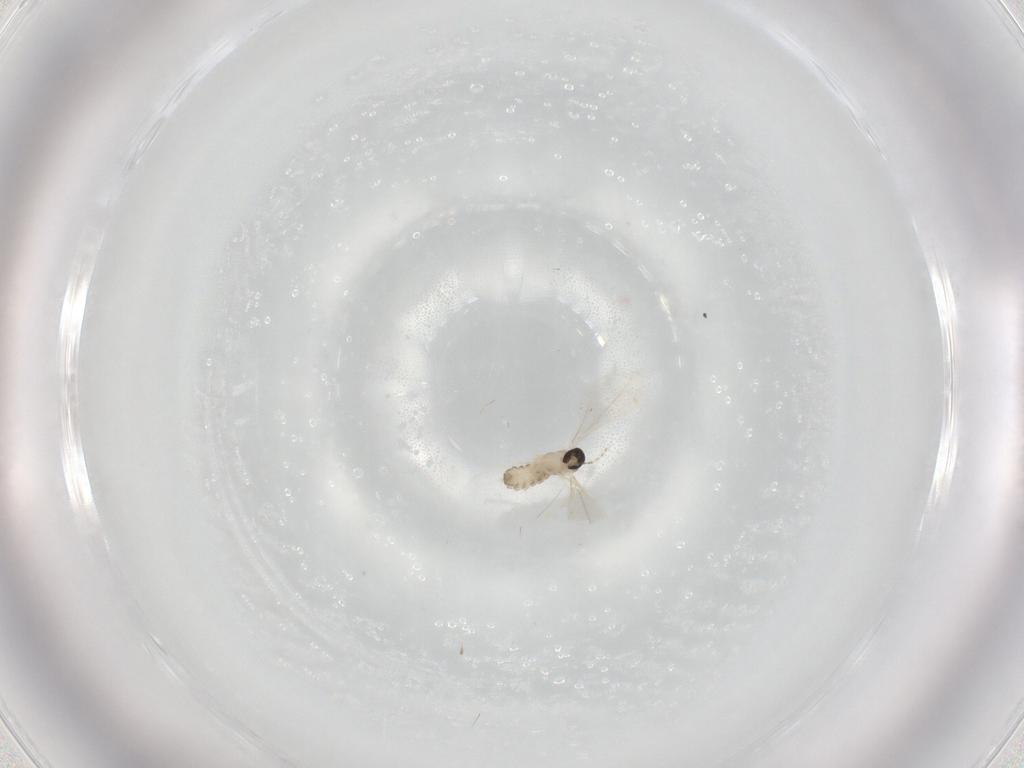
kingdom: Animalia
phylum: Arthropoda
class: Insecta
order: Diptera
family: Cecidomyiidae
